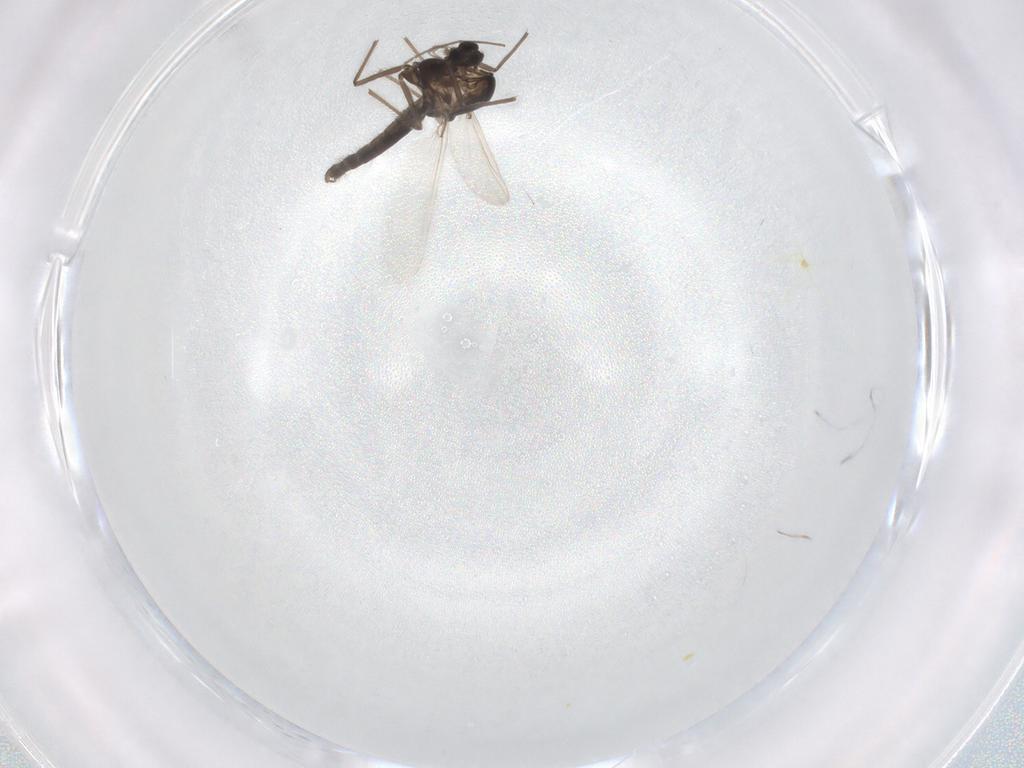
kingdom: Animalia
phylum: Arthropoda
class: Insecta
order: Diptera
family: Chironomidae
